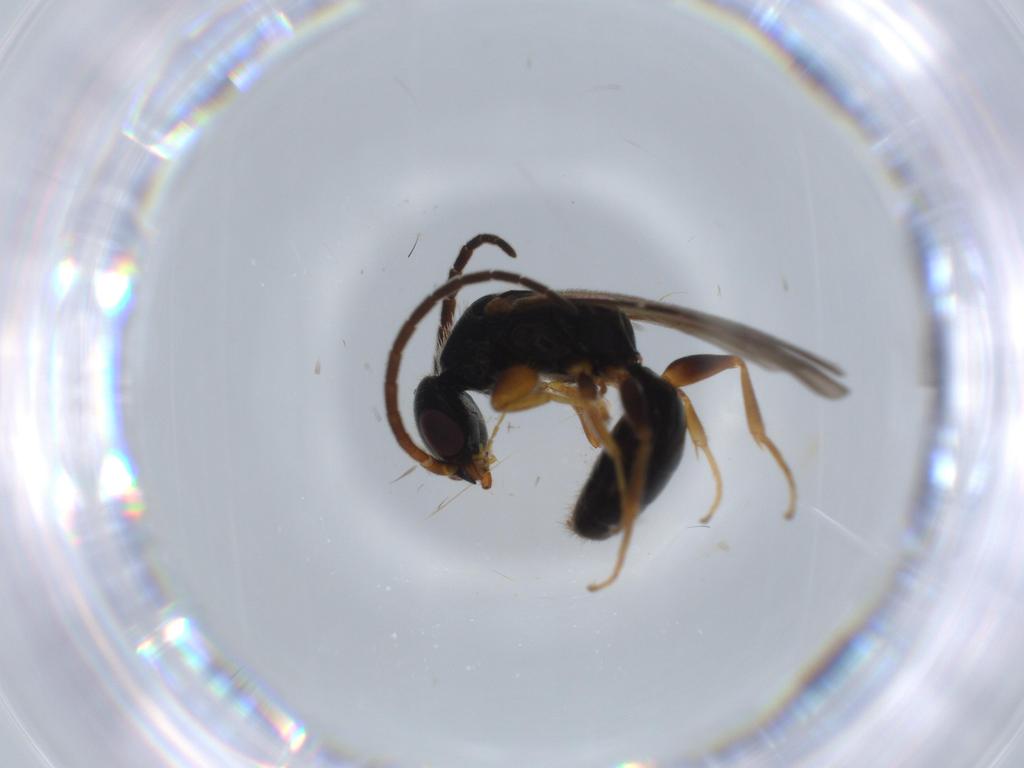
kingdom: Animalia
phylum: Arthropoda
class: Insecta
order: Hymenoptera
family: Bethylidae
